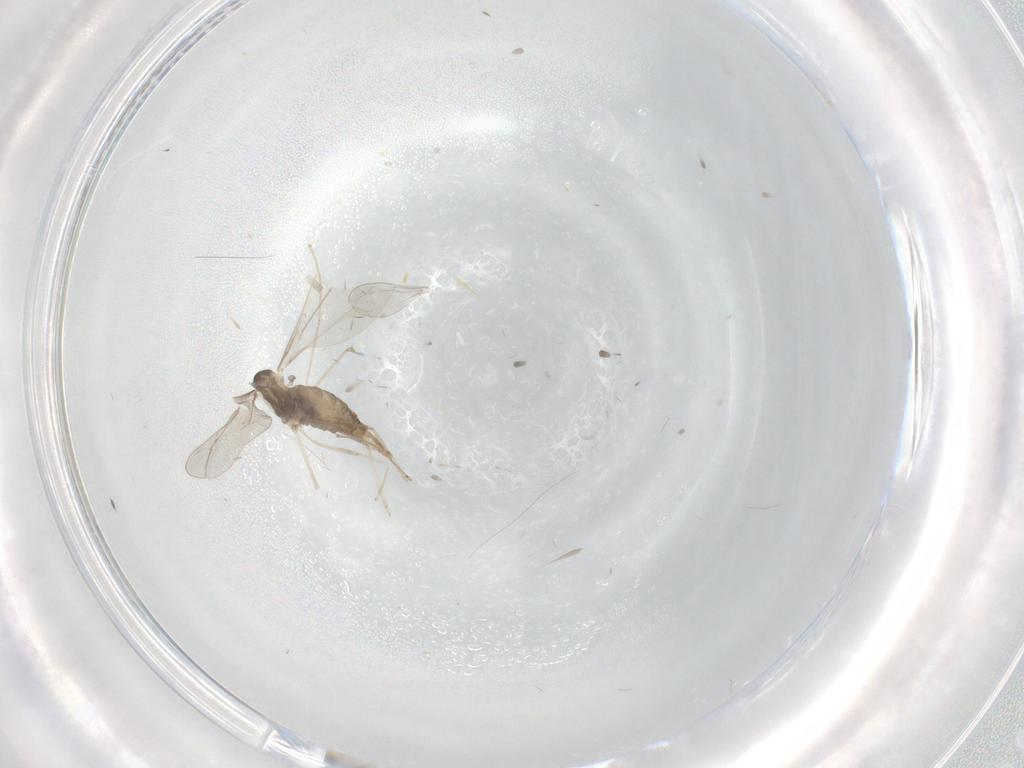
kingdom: Animalia
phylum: Arthropoda
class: Insecta
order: Diptera
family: Cecidomyiidae
